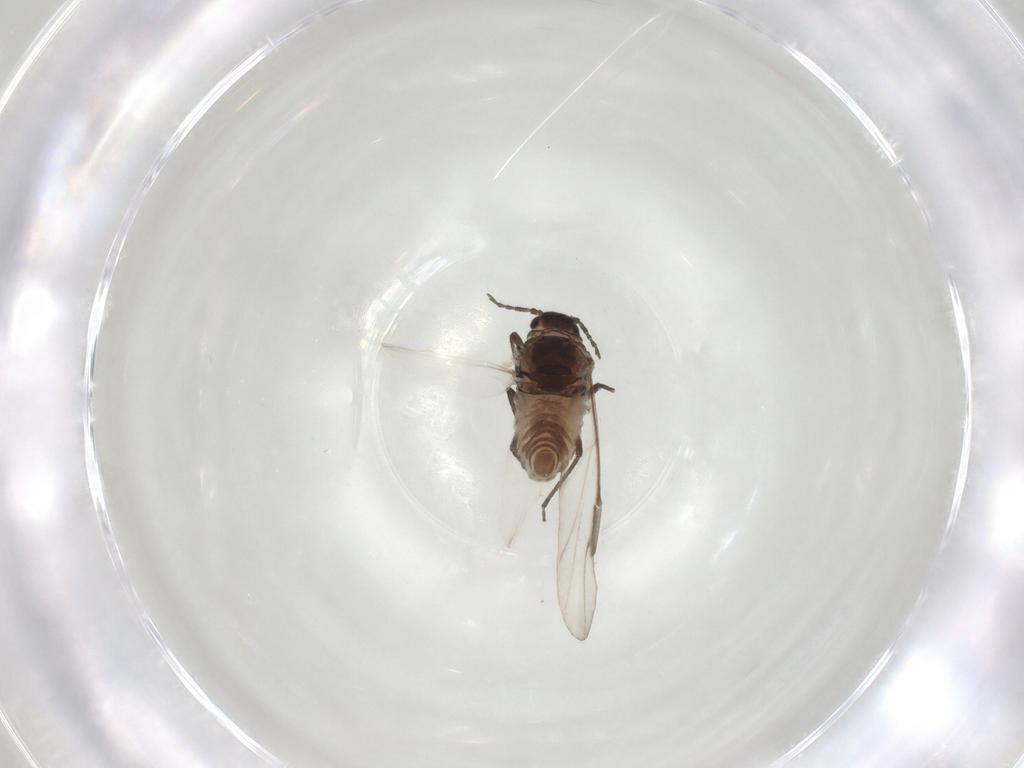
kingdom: Animalia
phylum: Arthropoda
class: Insecta
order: Hemiptera
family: Aphididae
